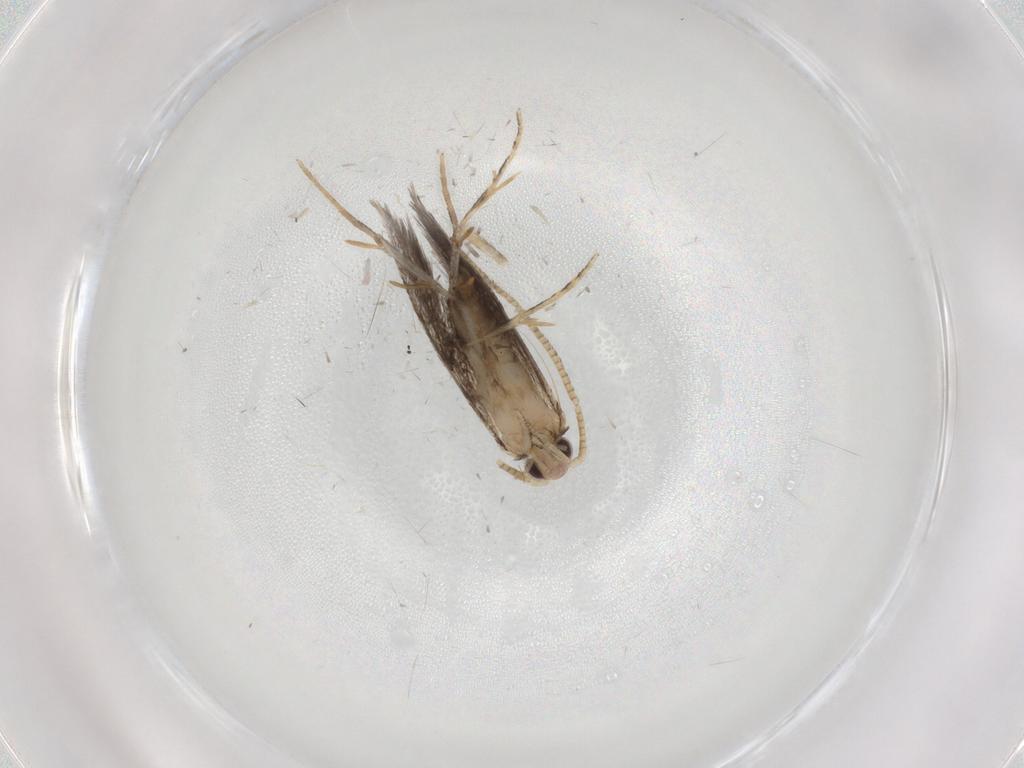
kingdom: Animalia
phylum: Arthropoda
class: Insecta
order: Lepidoptera
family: Tineidae
